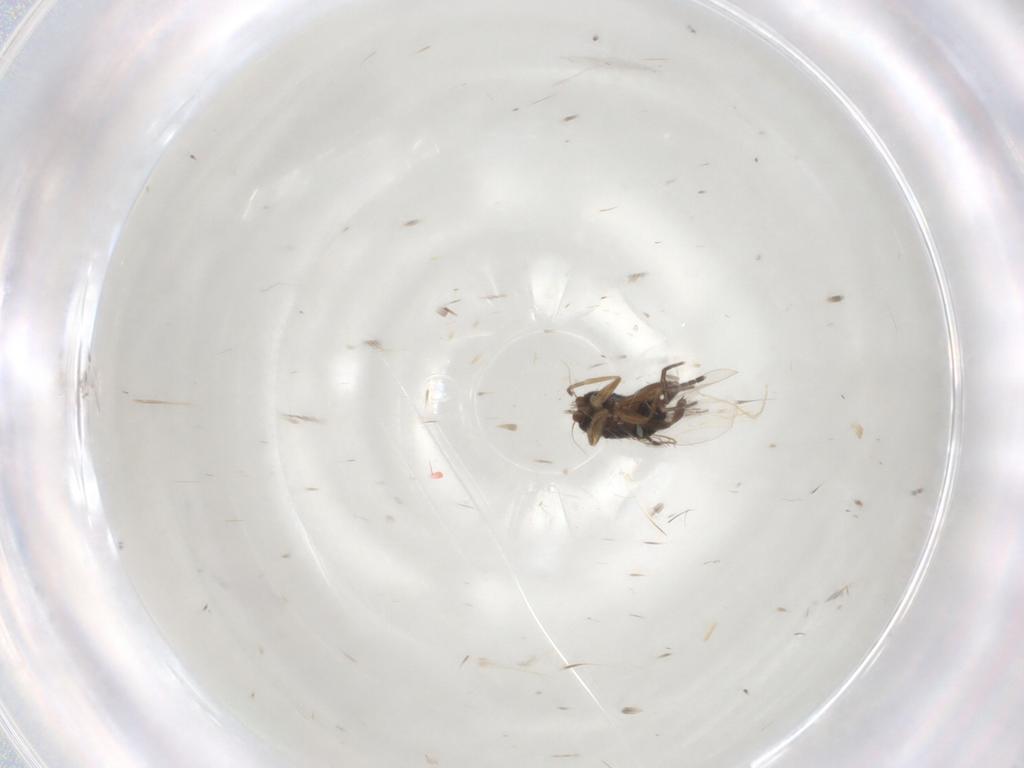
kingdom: Animalia
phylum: Arthropoda
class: Insecta
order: Diptera
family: Ceratopogonidae
